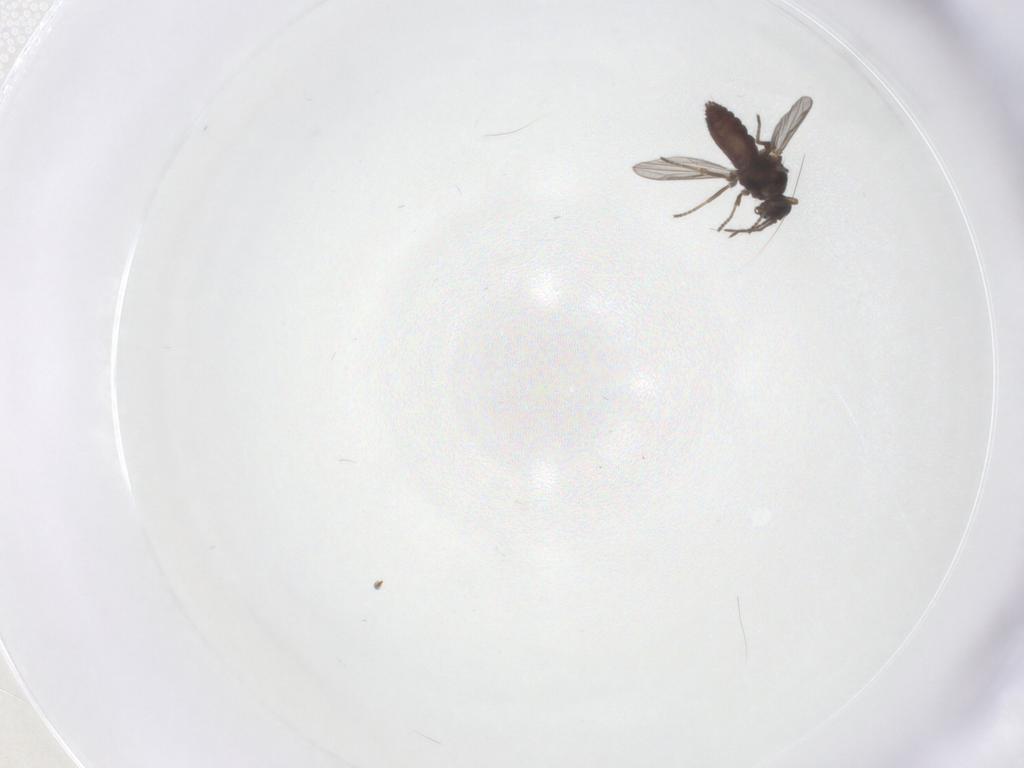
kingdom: Animalia
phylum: Arthropoda
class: Insecta
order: Diptera
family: Ceratopogonidae
